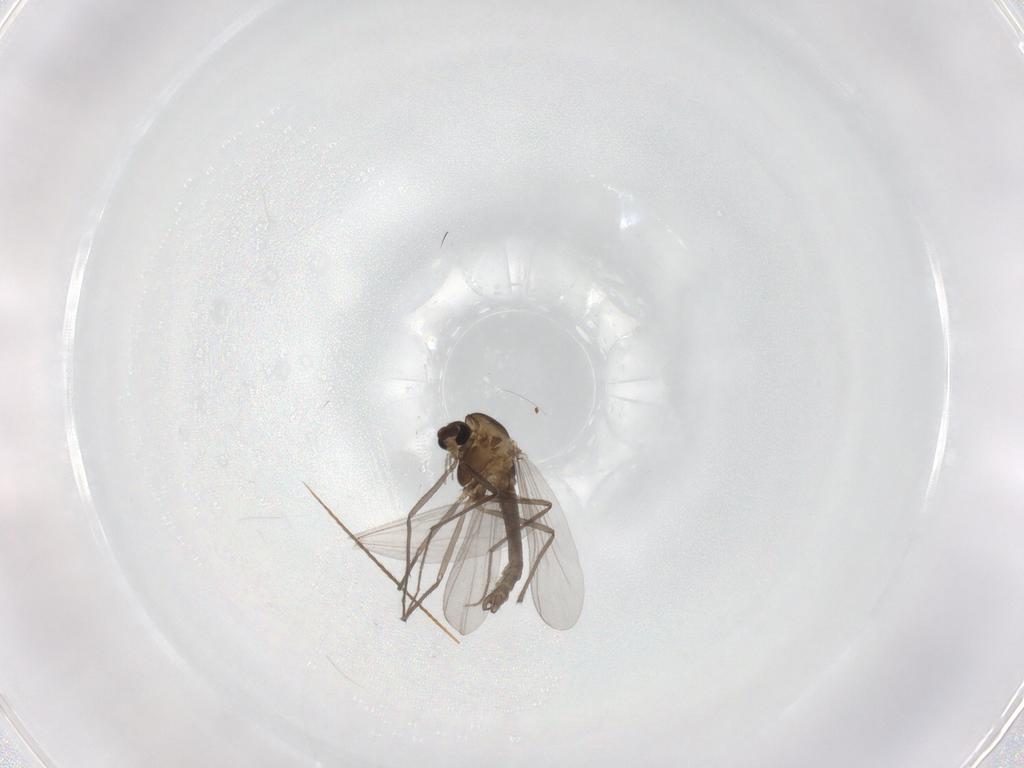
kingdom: Animalia
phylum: Arthropoda
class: Insecta
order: Diptera
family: Chironomidae
